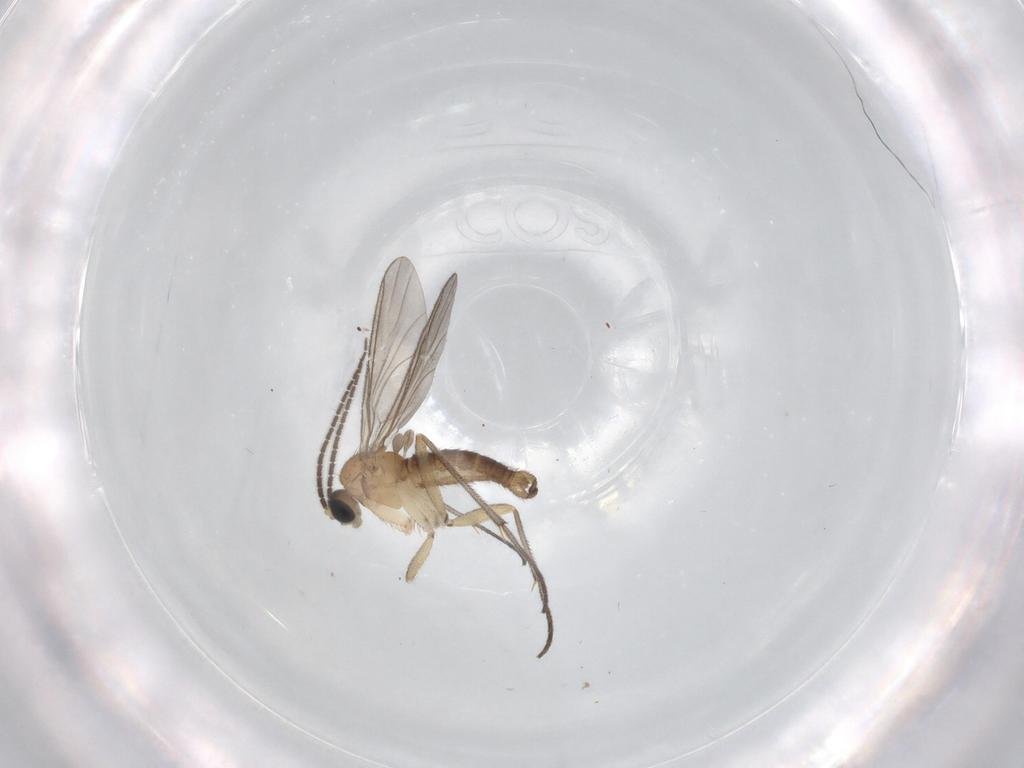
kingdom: Animalia
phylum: Arthropoda
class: Insecta
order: Diptera
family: Sciaridae
